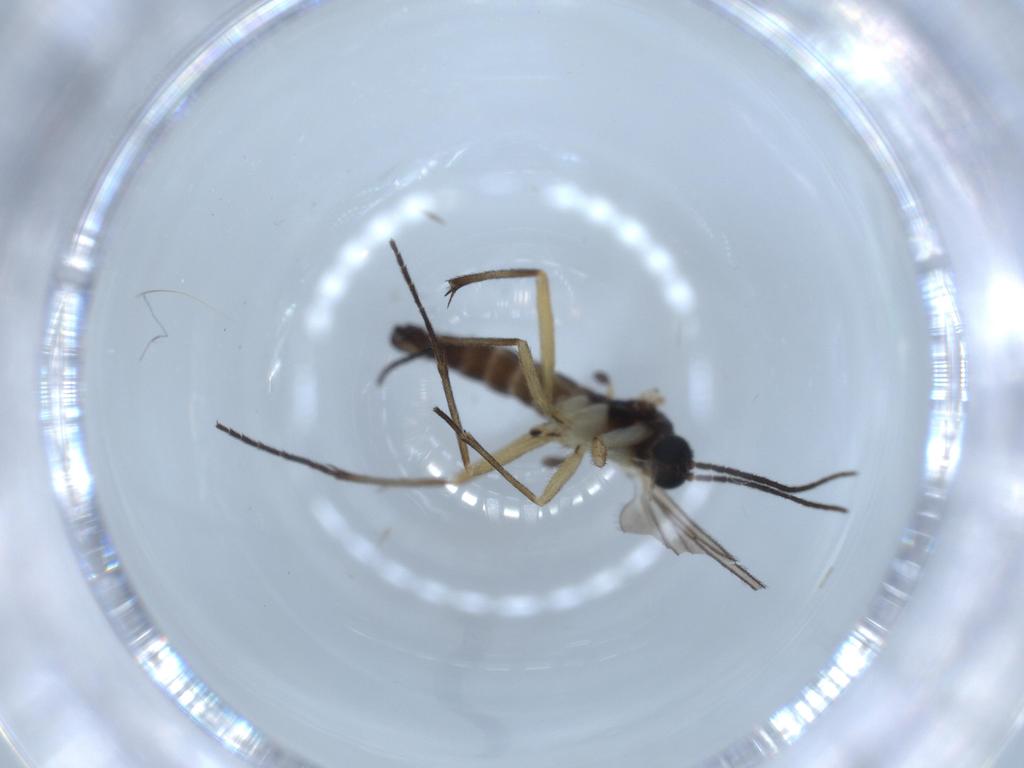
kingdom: Animalia
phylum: Arthropoda
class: Insecta
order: Diptera
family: Sciaridae
